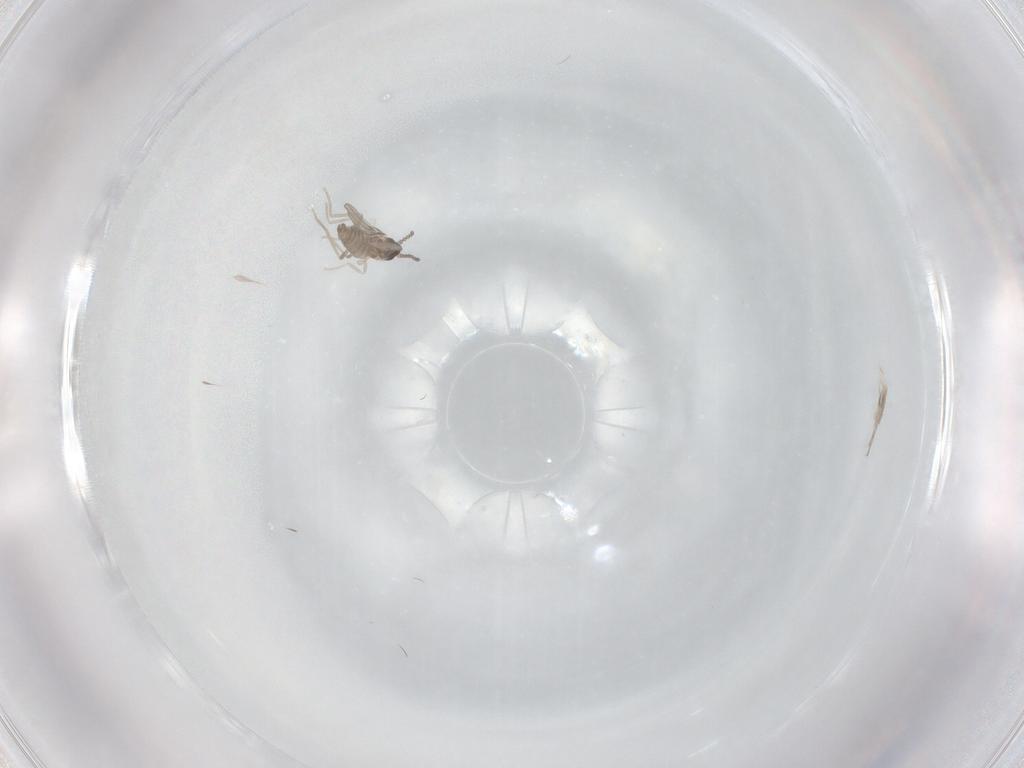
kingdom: Animalia
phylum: Arthropoda
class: Insecta
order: Diptera
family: Cecidomyiidae
